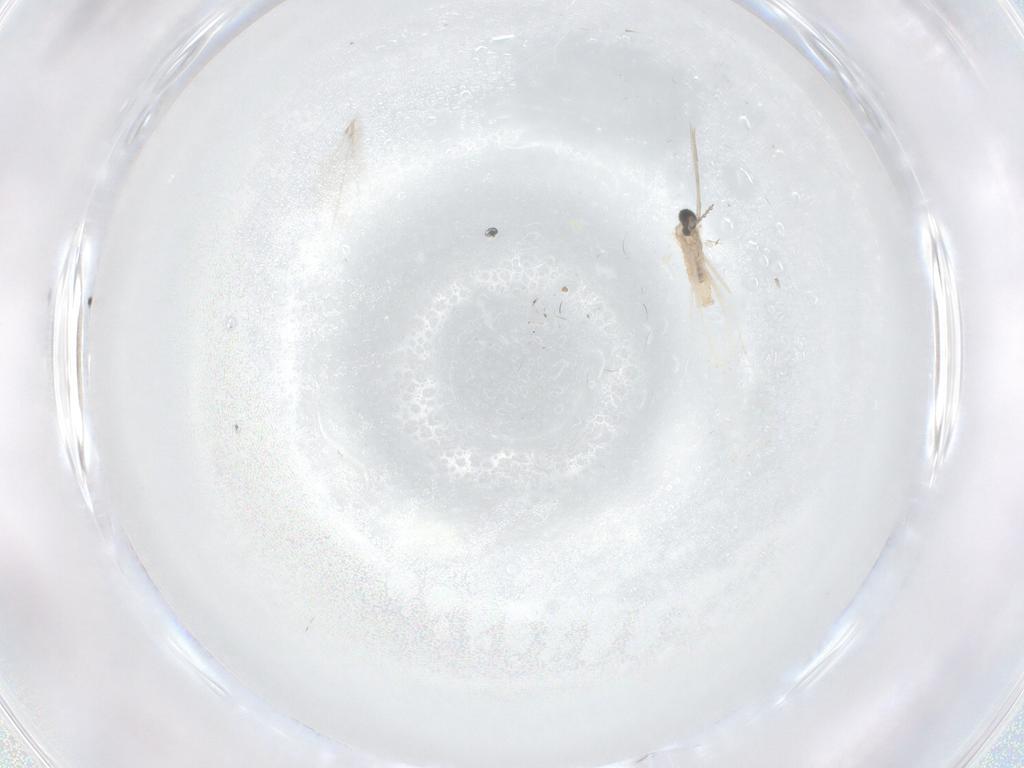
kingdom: Animalia
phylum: Arthropoda
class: Insecta
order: Diptera
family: Cecidomyiidae
